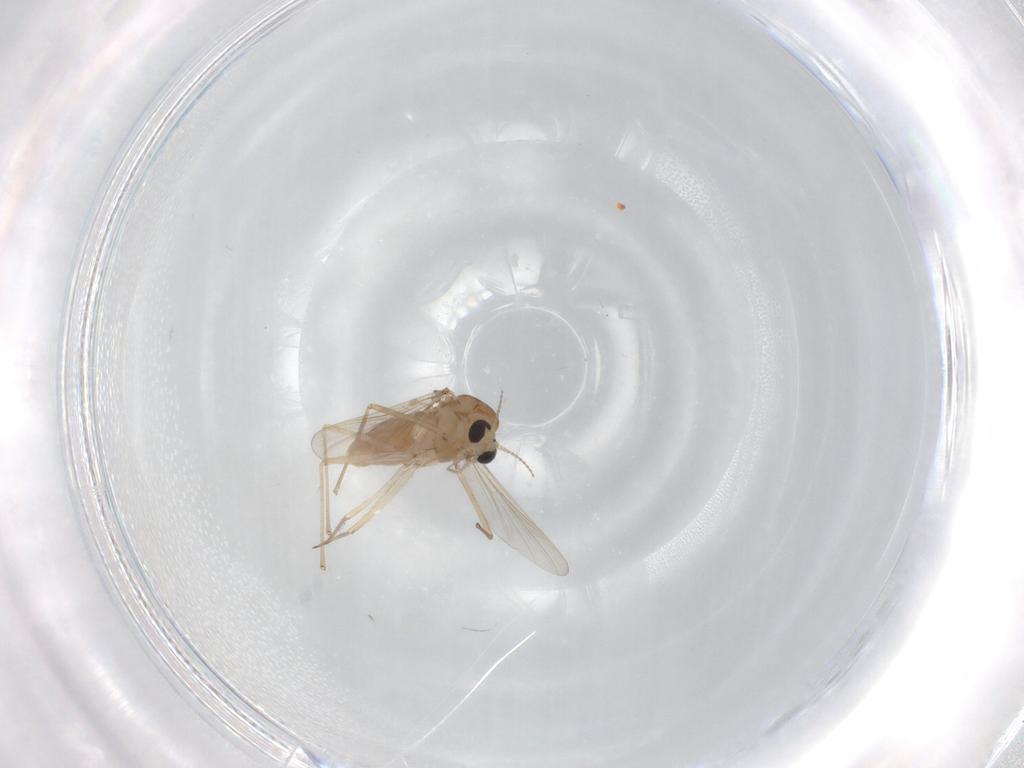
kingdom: Animalia
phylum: Arthropoda
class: Insecta
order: Diptera
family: Chironomidae
